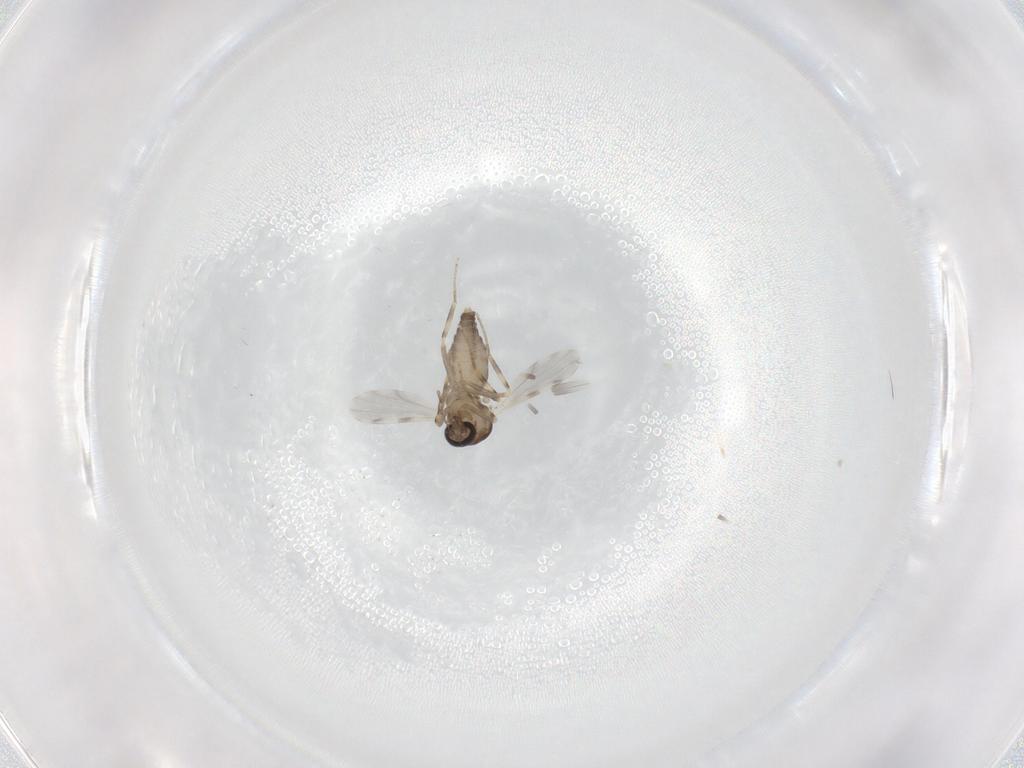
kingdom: Animalia
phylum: Arthropoda
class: Insecta
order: Diptera
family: Ceratopogonidae
